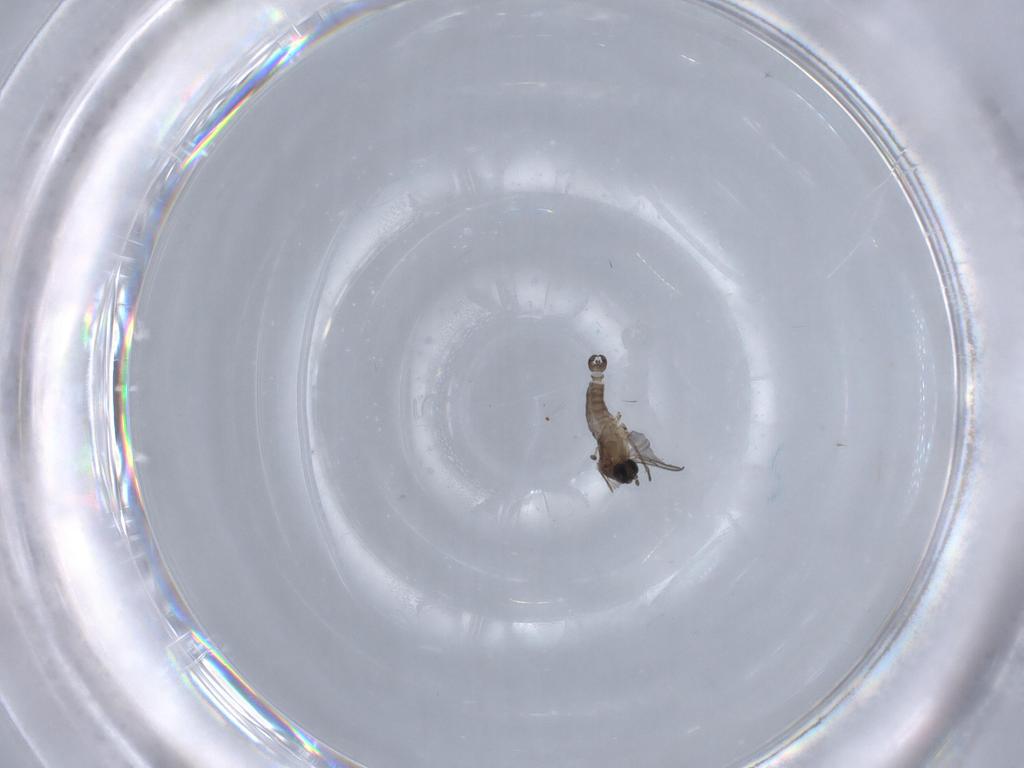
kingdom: Animalia
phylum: Arthropoda
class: Insecta
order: Diptera
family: Sciaridae
